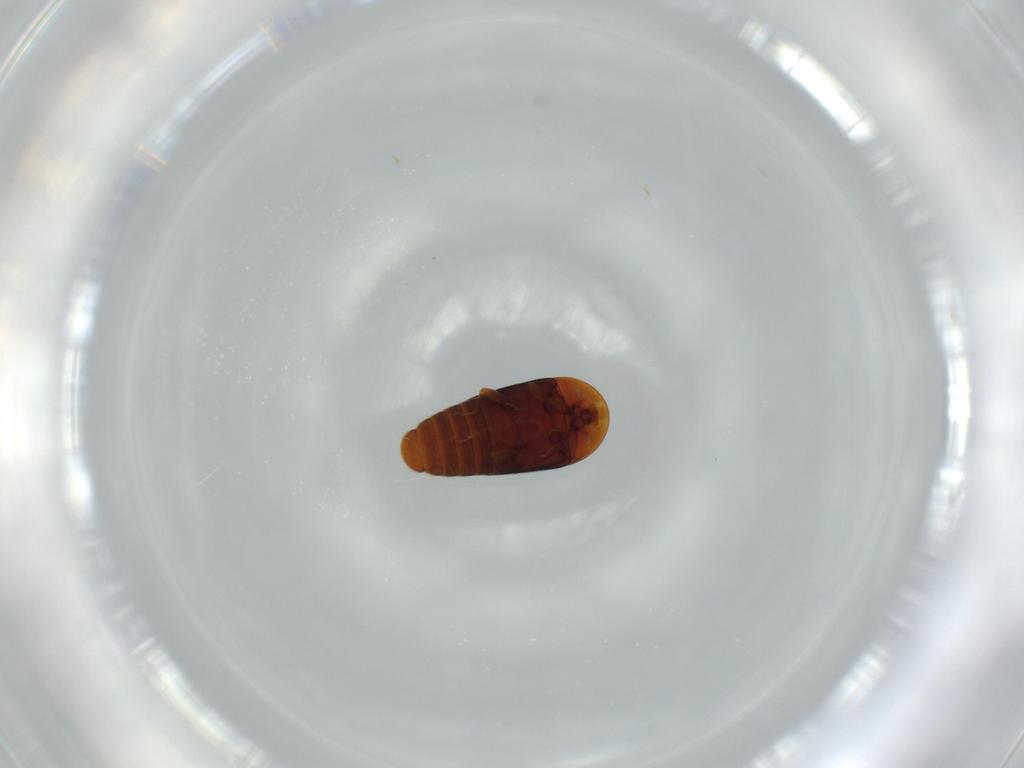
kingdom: Animalia
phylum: Arthropoda
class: Insecta
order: Coleoptera
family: Corylophidae
